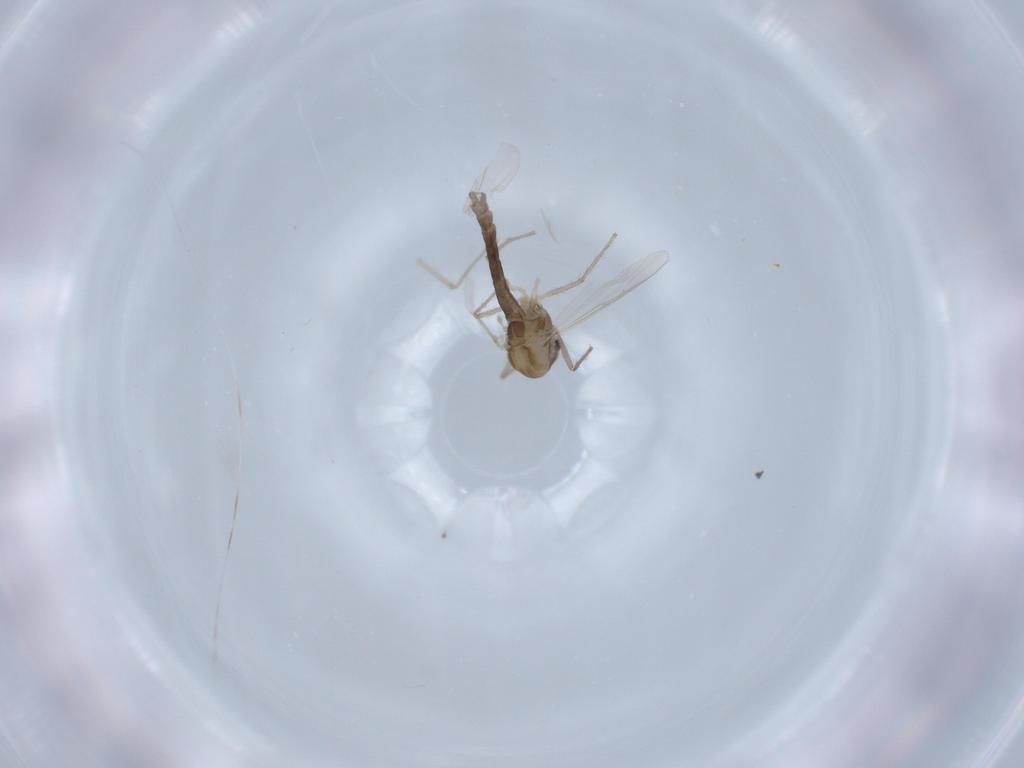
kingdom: Animalia
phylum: Arthropoda
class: Insecta
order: Diptera
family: Chironomidae
